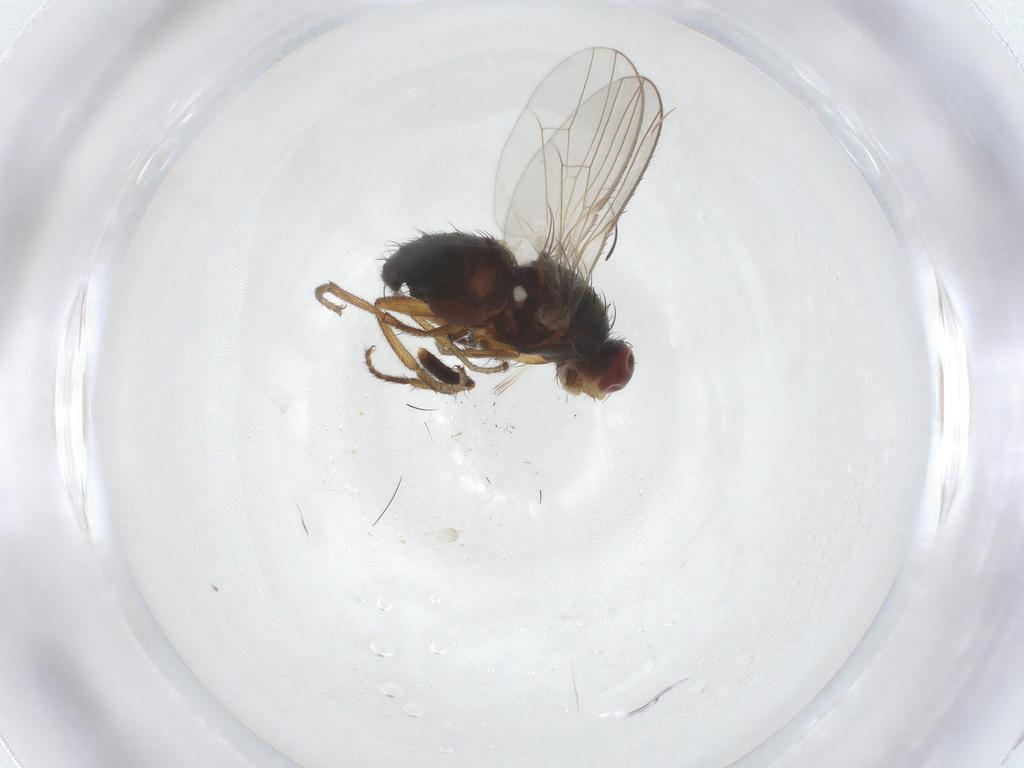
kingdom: Animalia
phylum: Arthropoda
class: Insecta
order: Diptera
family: Heleomyzidae
